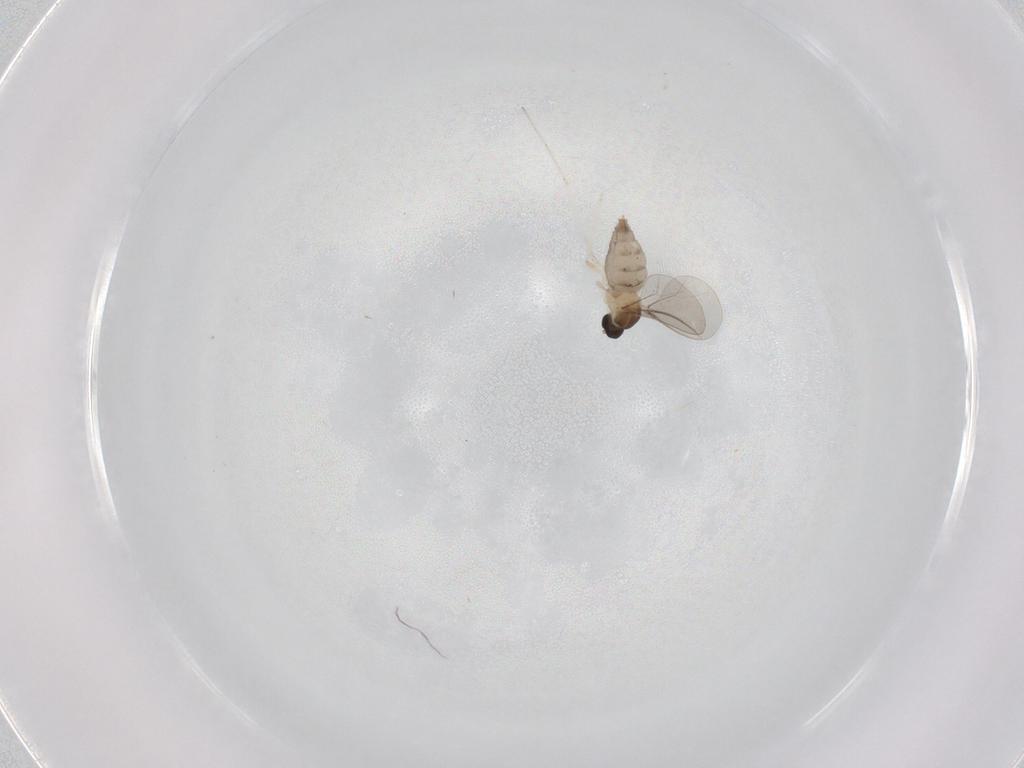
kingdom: Animalia
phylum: Arthropoda
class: Insecta
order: Diptera
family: Cecidomyiidae
